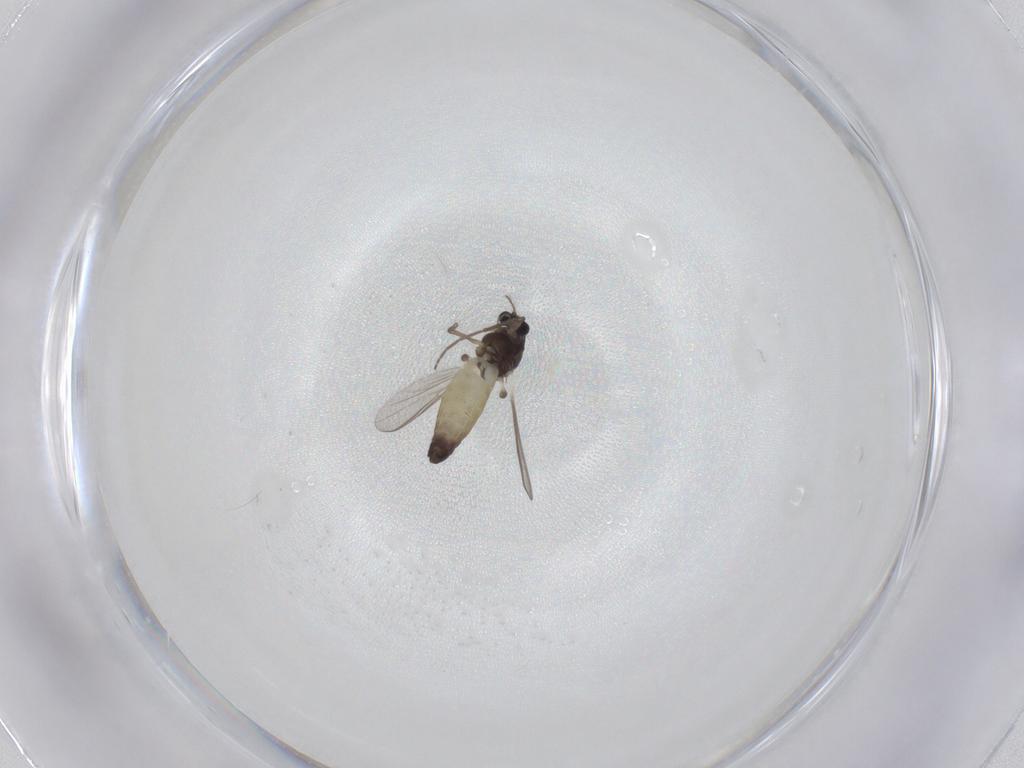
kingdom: Animalia
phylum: Arthropoda
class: Insecta
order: Diptera
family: Chironomidae
